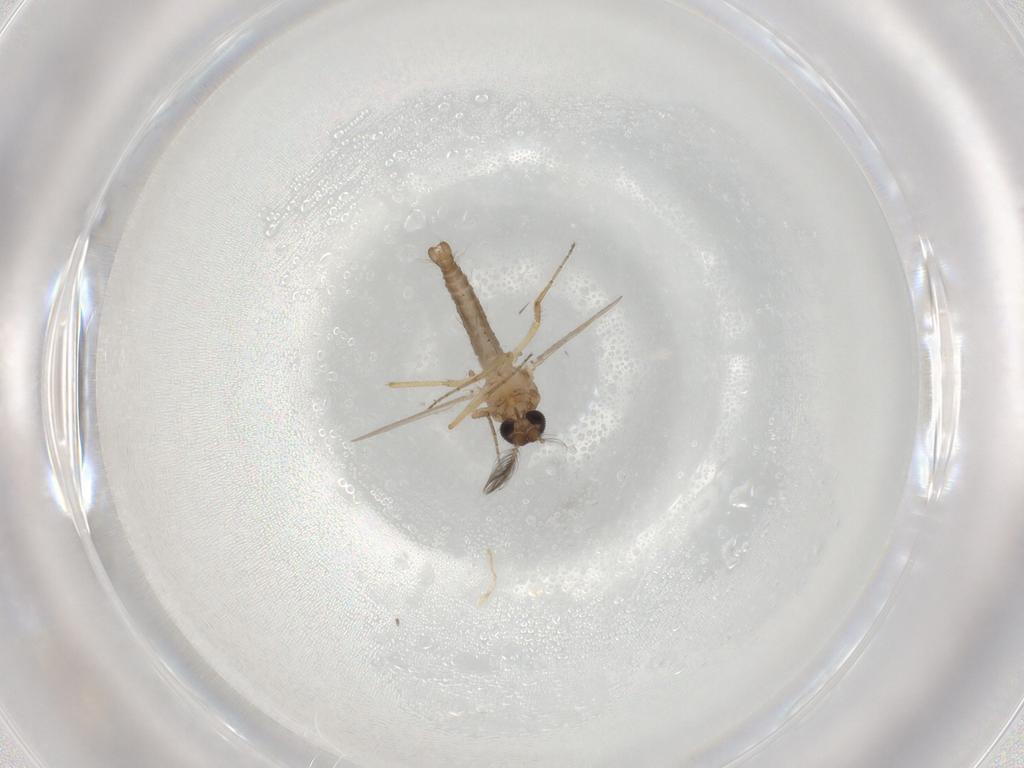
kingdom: Animalia
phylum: Arthropoda
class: Insecta
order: Diptera
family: Ceratopogonidae
